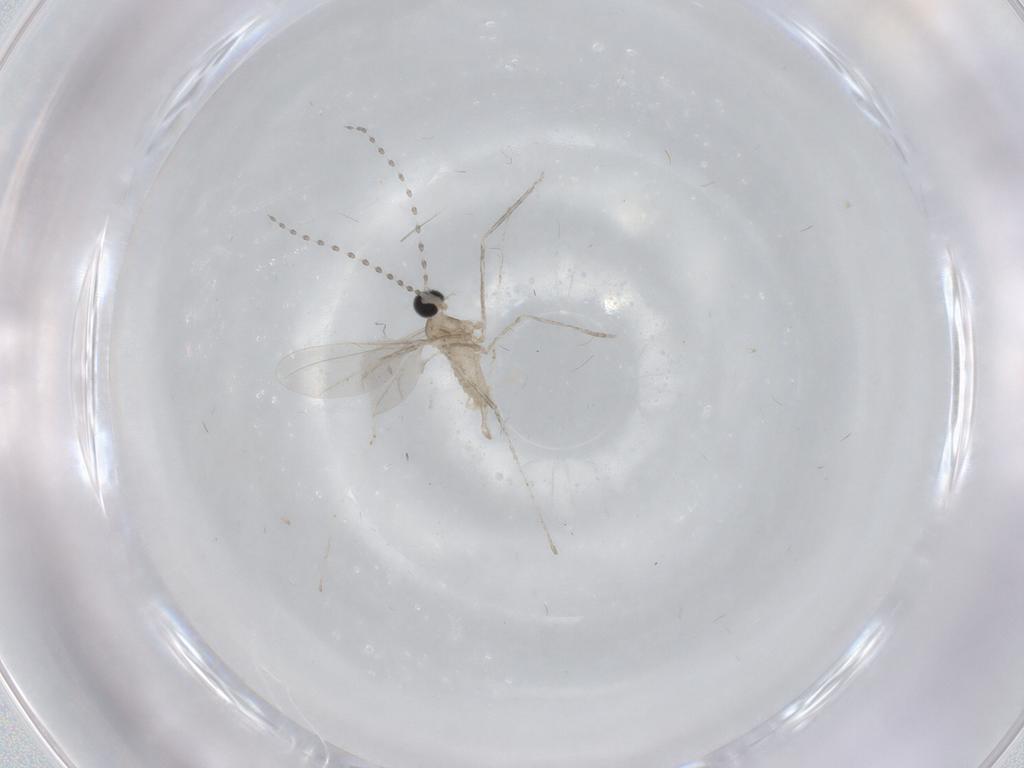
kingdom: Animalia
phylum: Arthropoda
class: Insecta
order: Diptera
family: Cecidomyiidae
